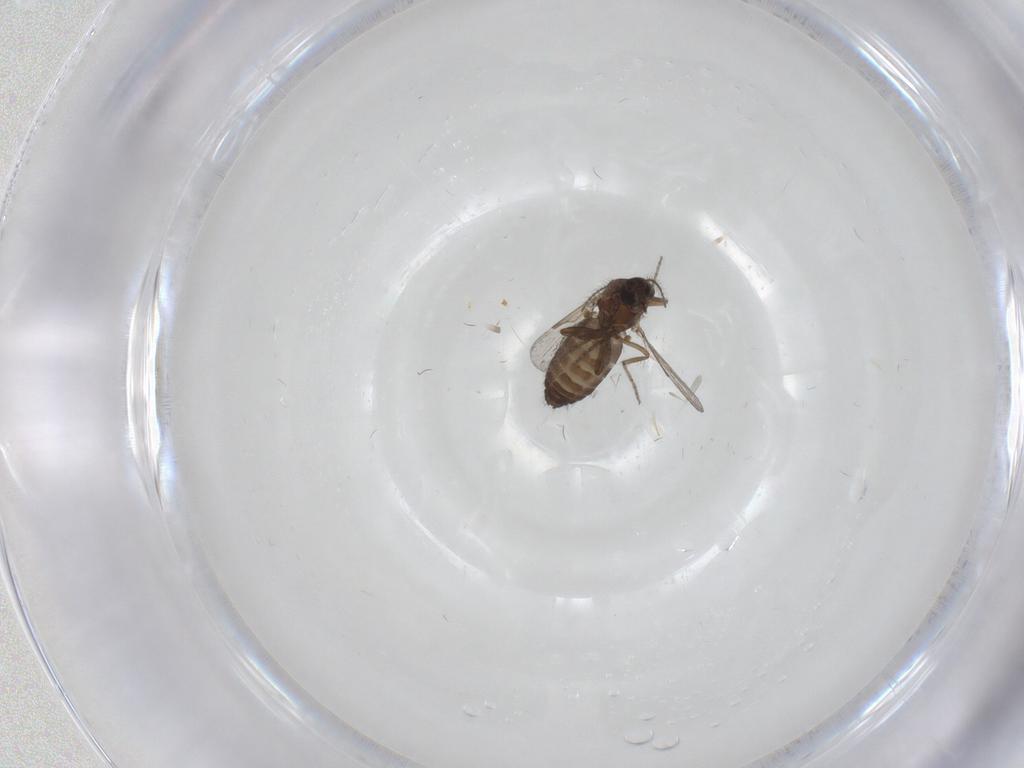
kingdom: Animalia
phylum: Arthropoda
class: Insecta
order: Diptera
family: Ceratopogonidae
